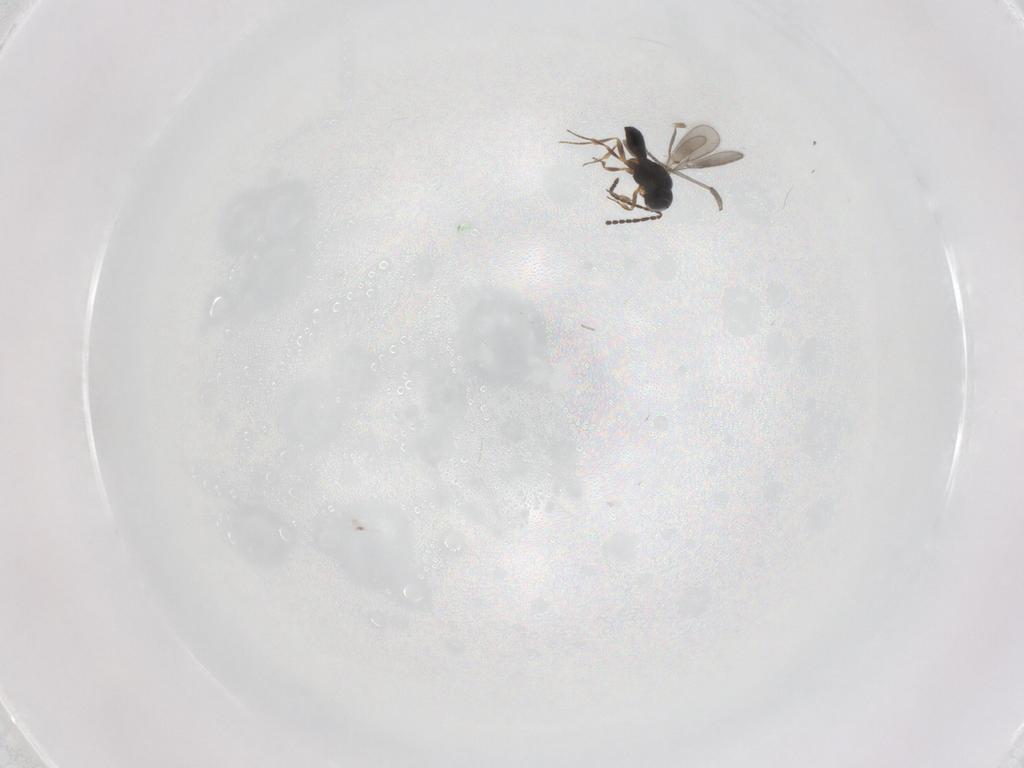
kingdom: Animalia
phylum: Arthropoda
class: Insecta
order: Hymenoptera
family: Scelionidae
